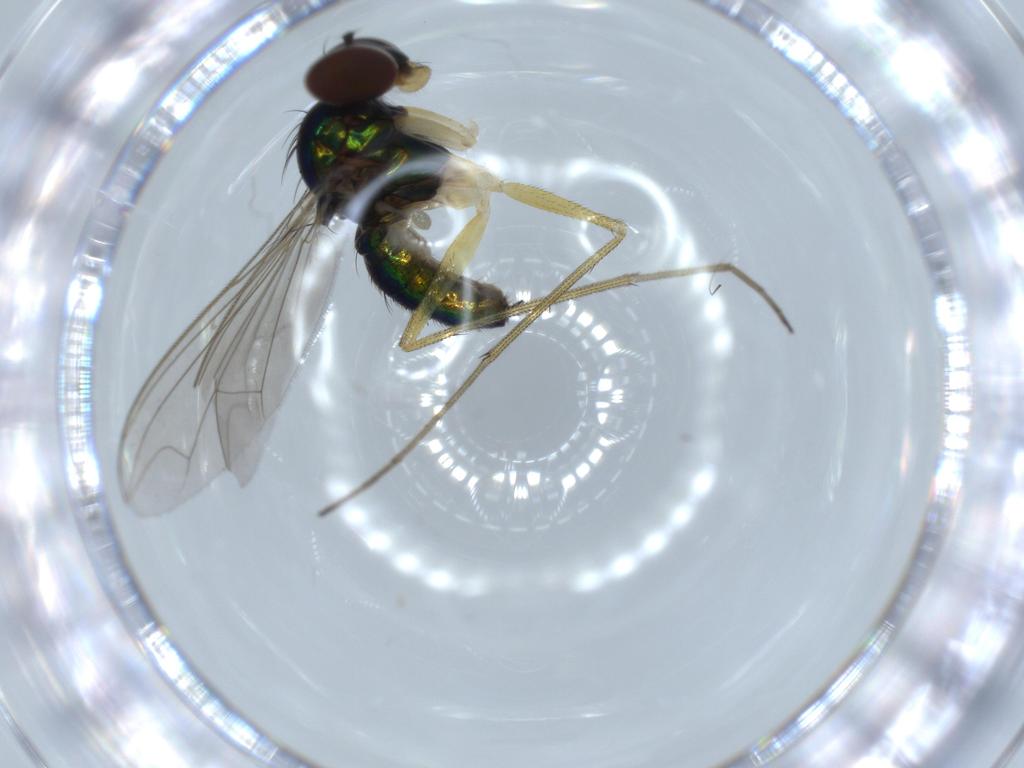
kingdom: Animalia
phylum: Arthropoda
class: Insecta
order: Diptera
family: Dolichopodidae
